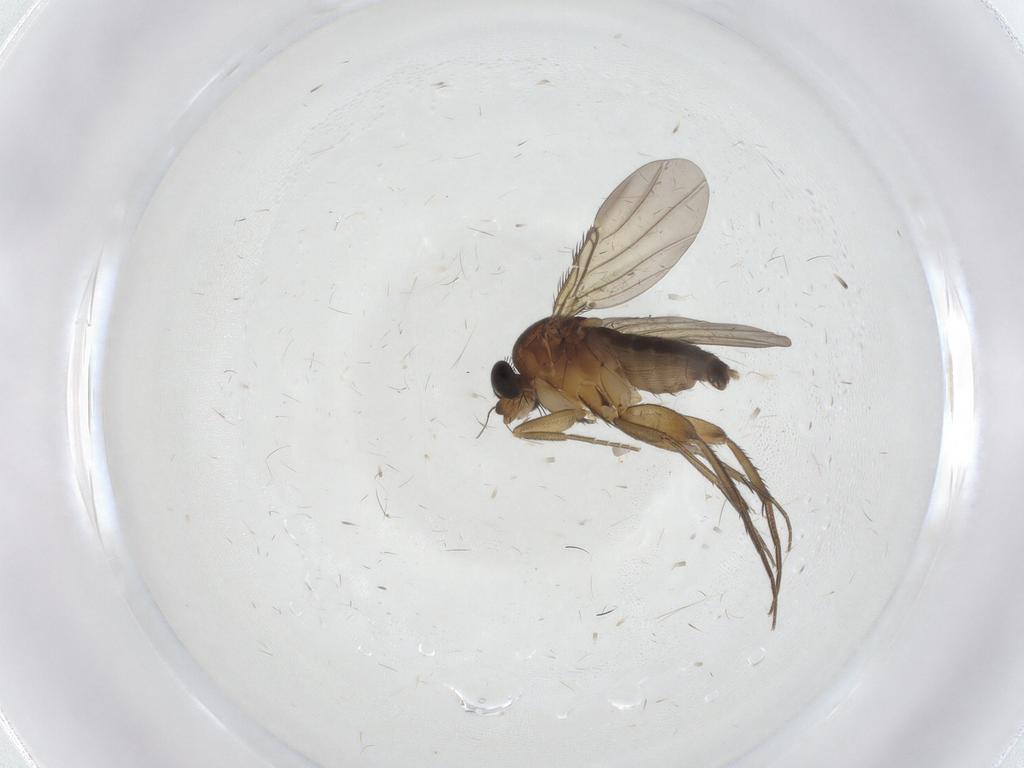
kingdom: Animalia
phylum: Arthropoda
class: Insecta
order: Diptera
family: Phoridae
